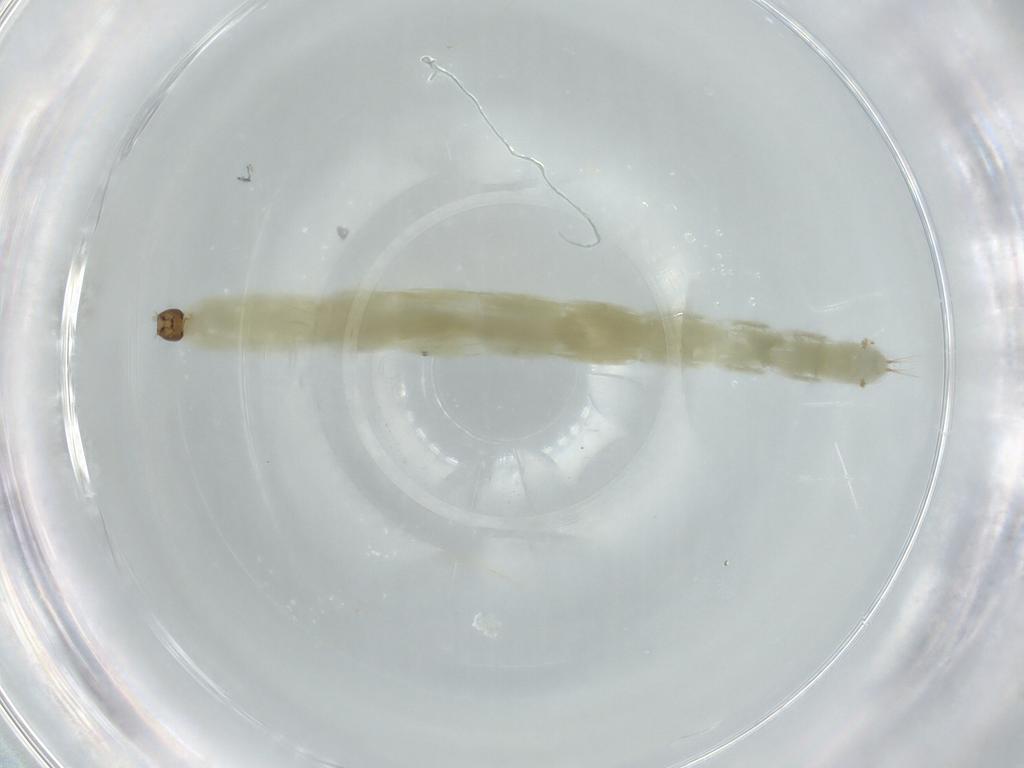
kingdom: Animalia
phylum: Arthropoda
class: Insecta
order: Diptera
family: Chironomidae
